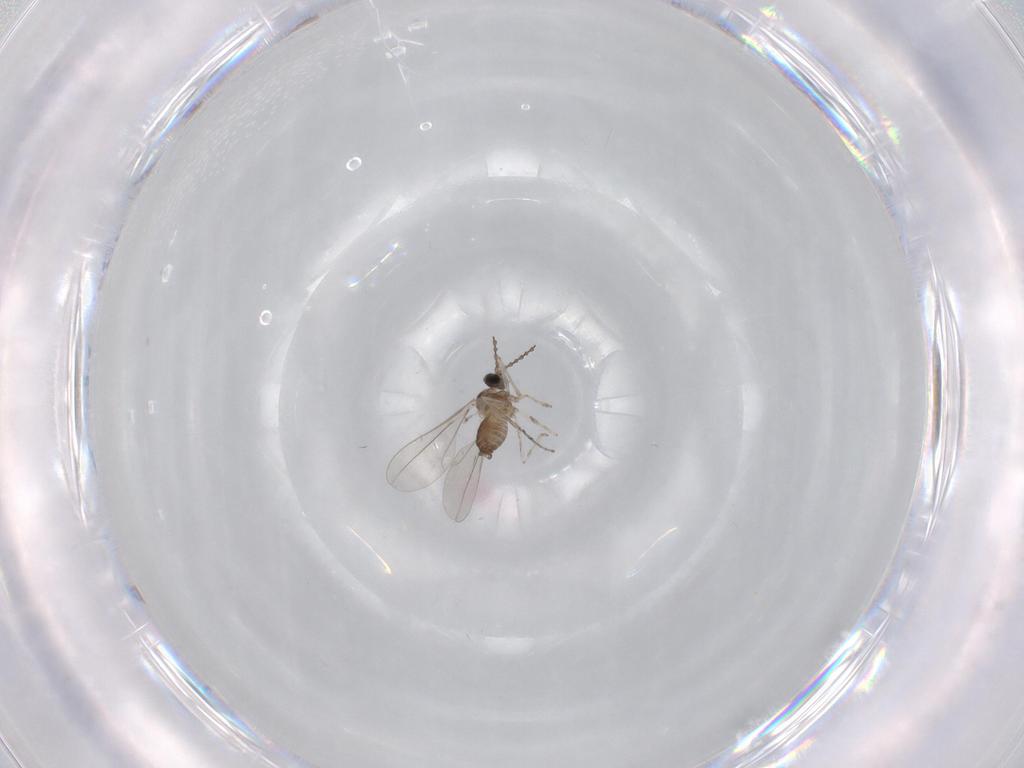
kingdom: Animalia
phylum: Arthropoda
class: Insecta
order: Diptera
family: Cecidomyiidae
